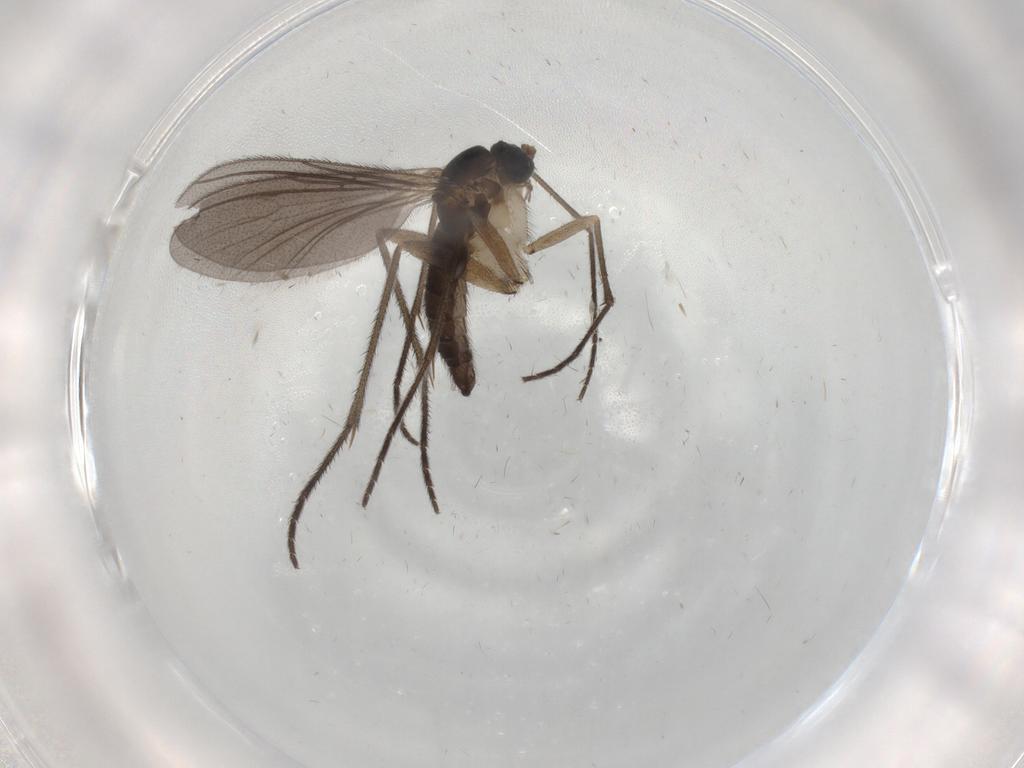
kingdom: Animalia
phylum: Arthropoda
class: Insecta
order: Diptera
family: Sciaridae
